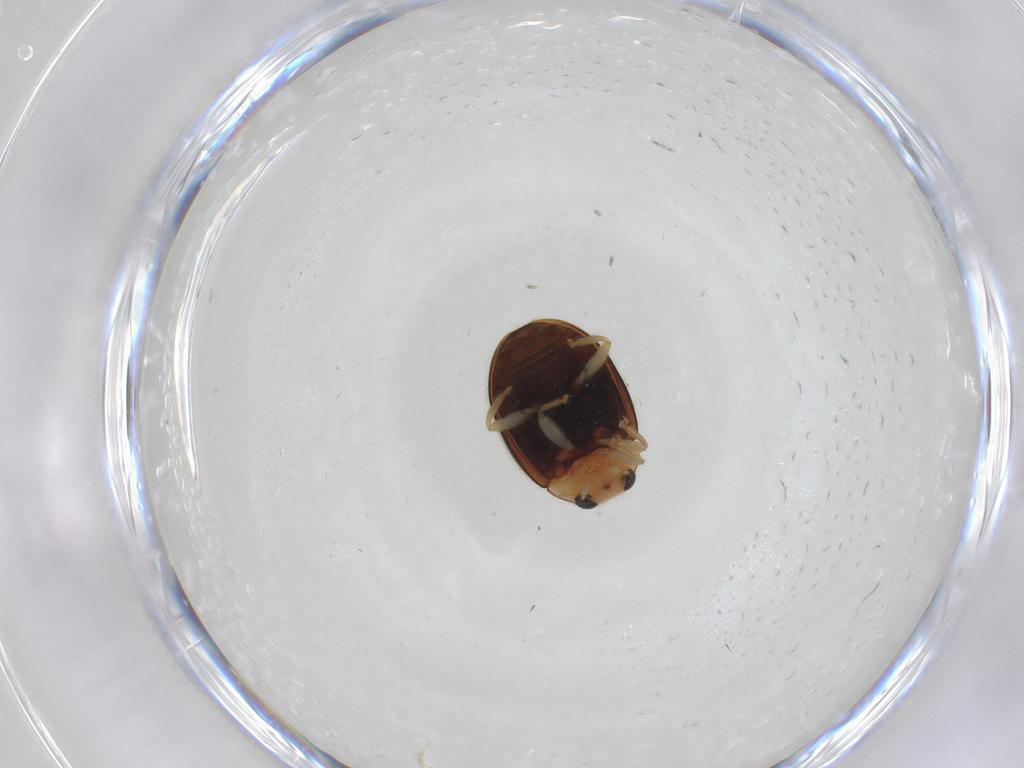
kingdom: Animalia
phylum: Arthropoda
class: Insecta
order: Coleoptera
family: Coccinellidae
